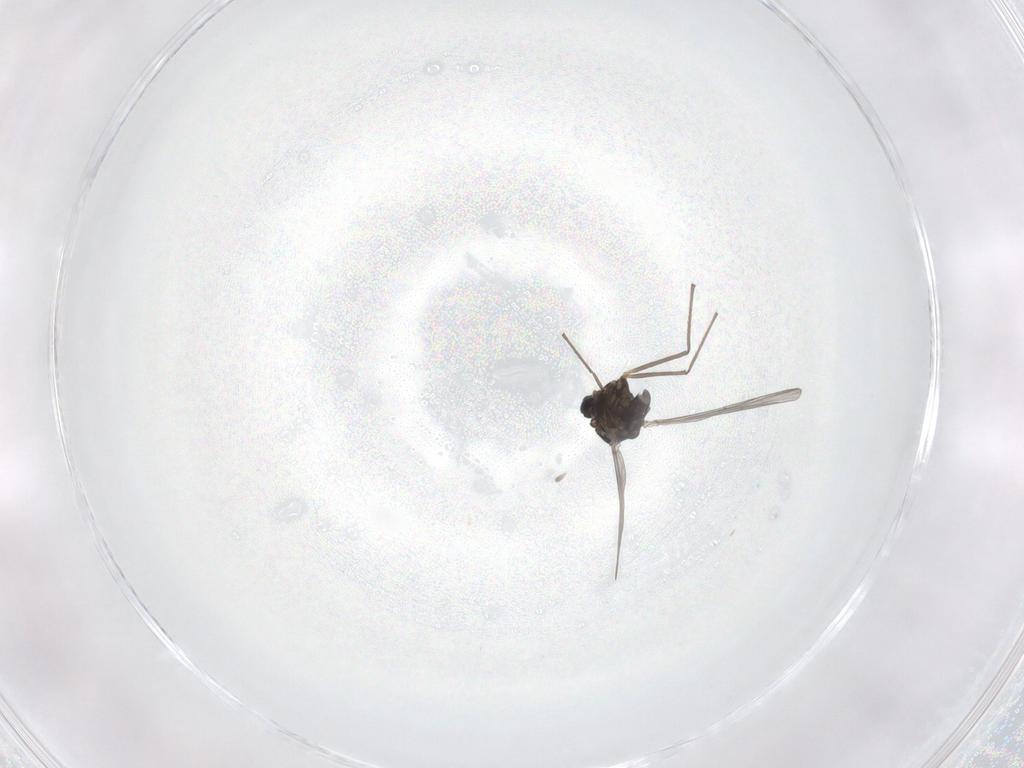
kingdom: Animalia
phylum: Arthropoda
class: Insecta
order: Diptera
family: Chironomidae
